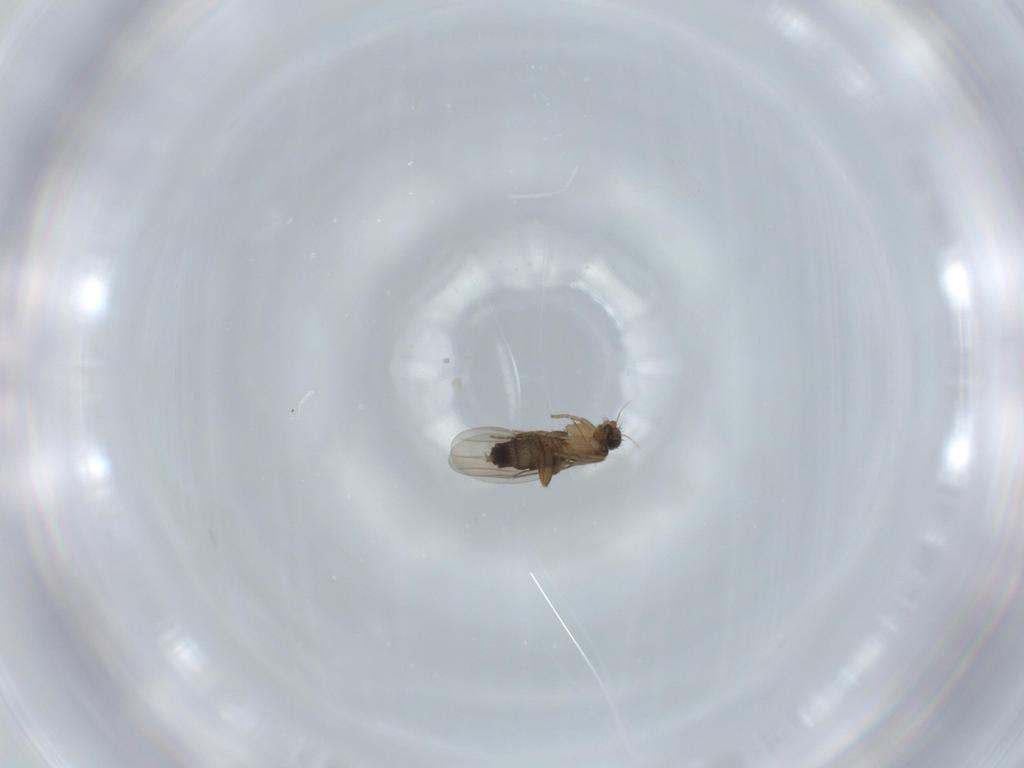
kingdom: Animalia
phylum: Arthropoda
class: Insecta
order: Diptera
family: Phoridae
